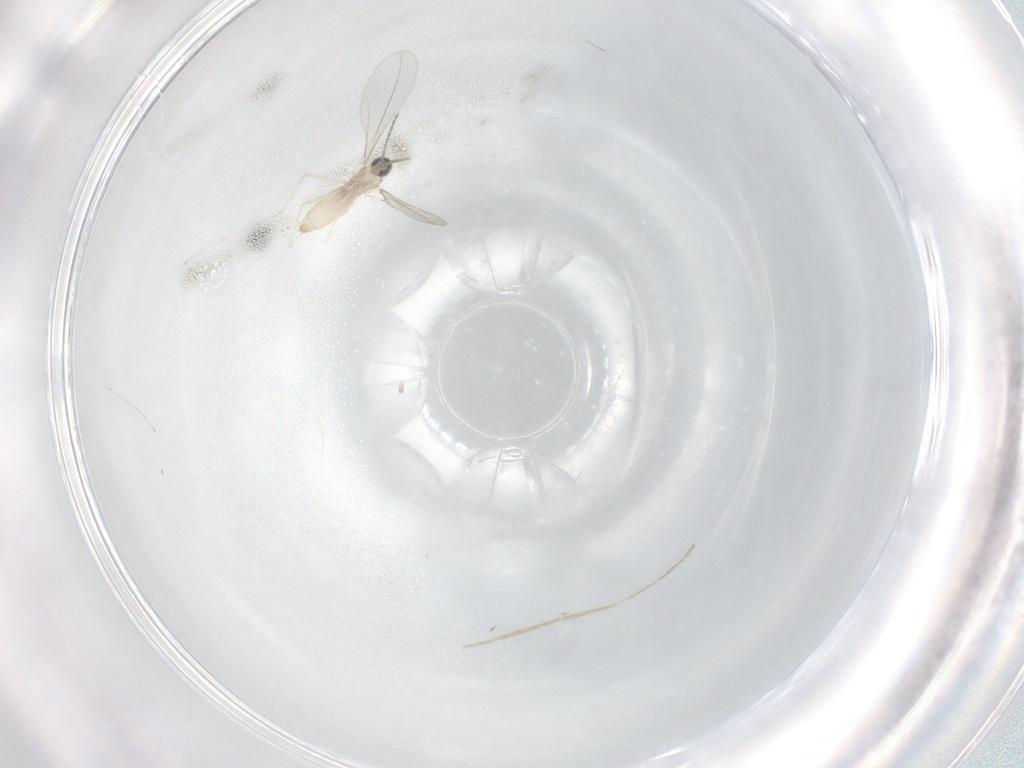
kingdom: Animalia
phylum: Arthropoda
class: Insecta
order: Diptera
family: Cecidomyiidae
